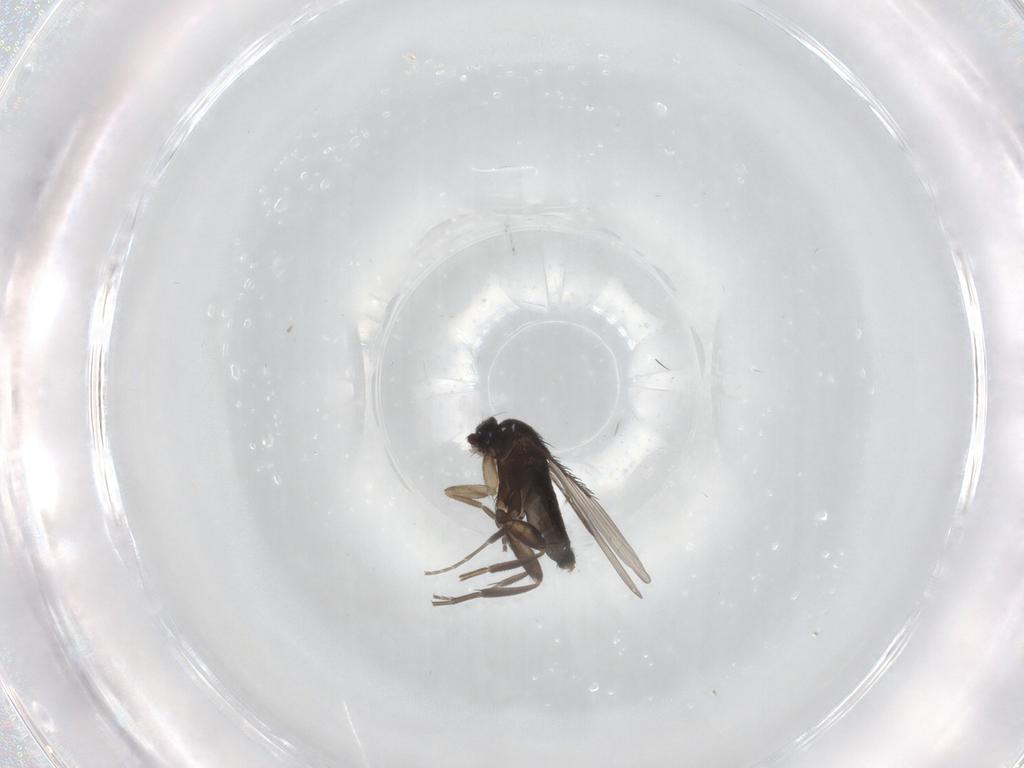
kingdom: Animalia
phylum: Arthropoda
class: Insecta
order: Diptera
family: Phoridae
